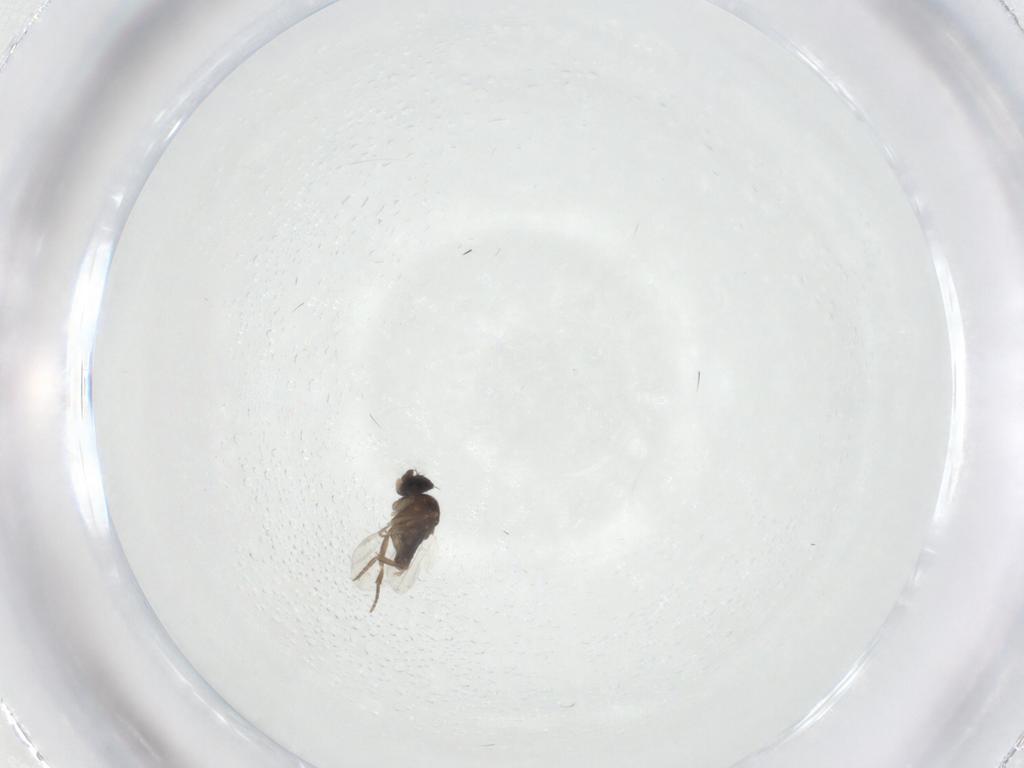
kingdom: Animalia
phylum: Arthropoda
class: Insecta
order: Diptera
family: Phoridae
